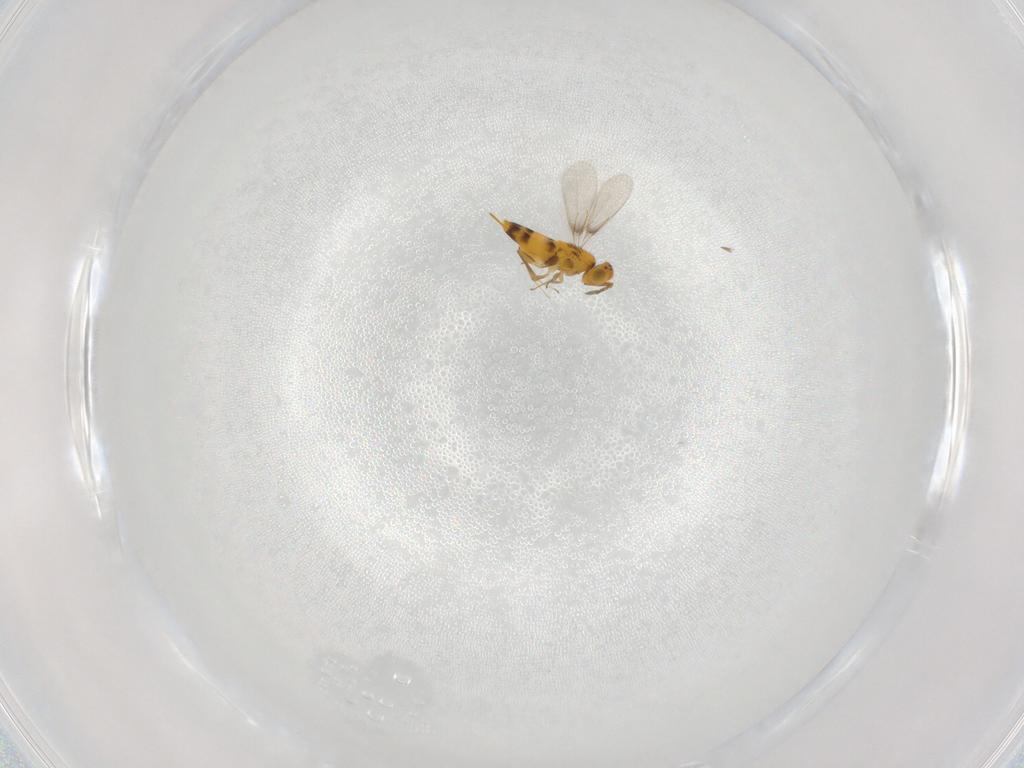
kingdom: Animalia
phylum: Arthropoda
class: Insecta
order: Hymenoptera
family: Aphelinidae
